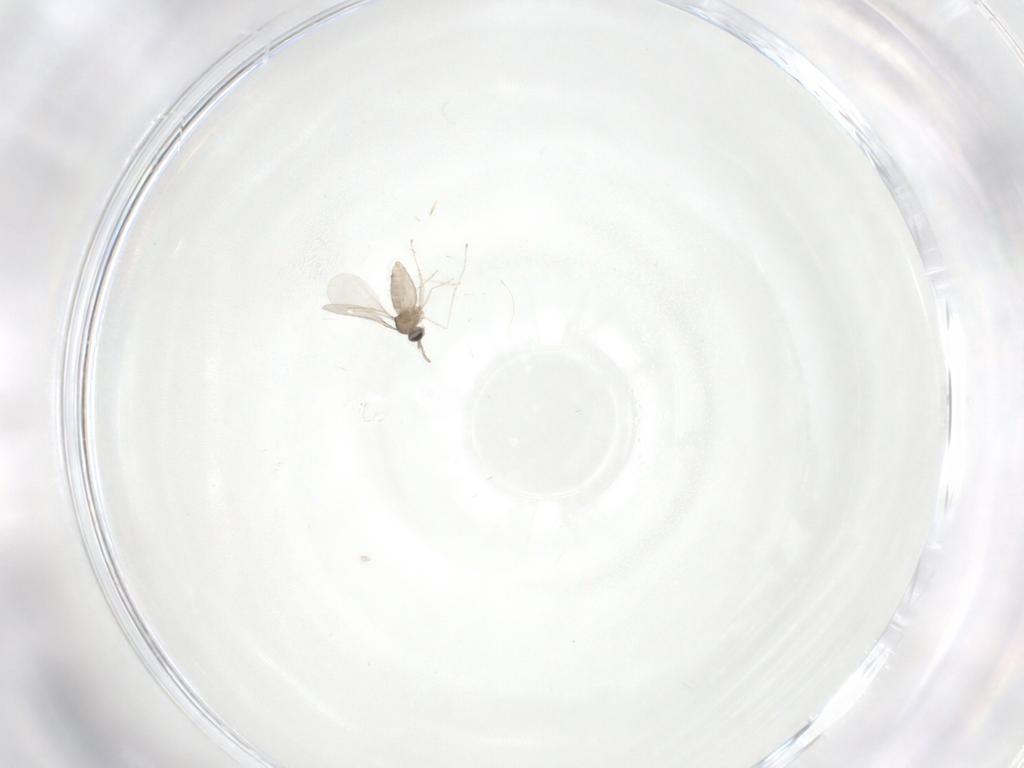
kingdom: Animalia
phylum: Arthropoda
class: Insecta
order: Diptera
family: Cecidomyiidae
